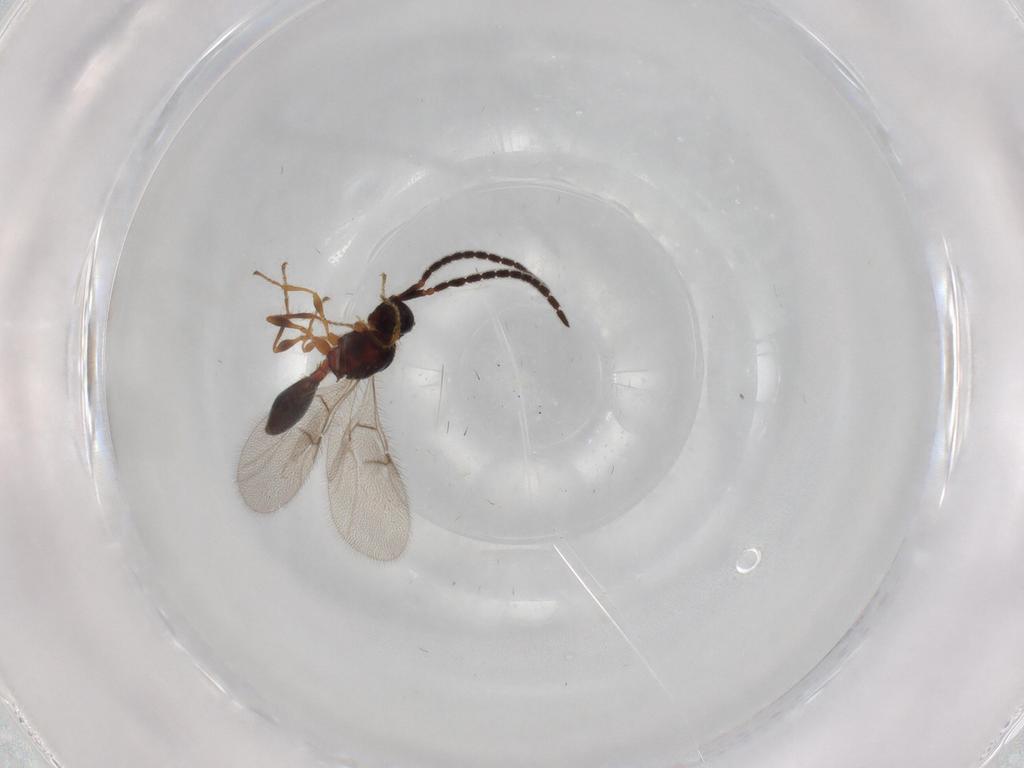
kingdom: Animalia
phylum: Arthropoda
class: Insecta
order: Hymenoptera
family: Diapriidae
